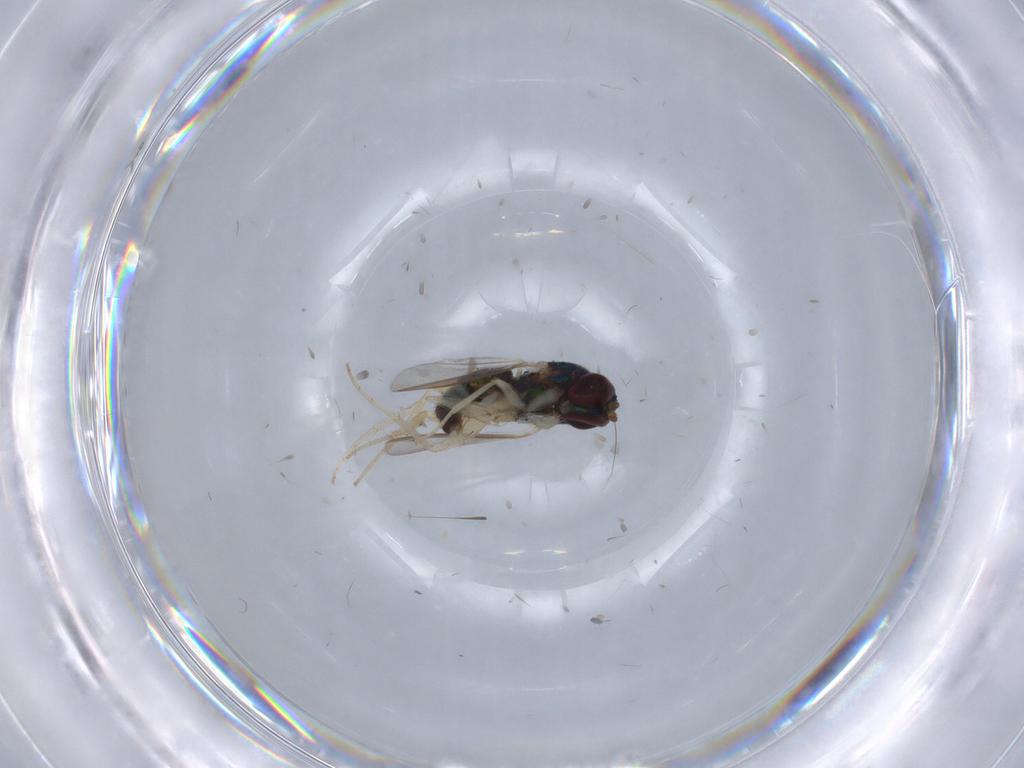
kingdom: Animalia
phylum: Arthropoda
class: Insecta
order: Diptera
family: Dolichopodidae
